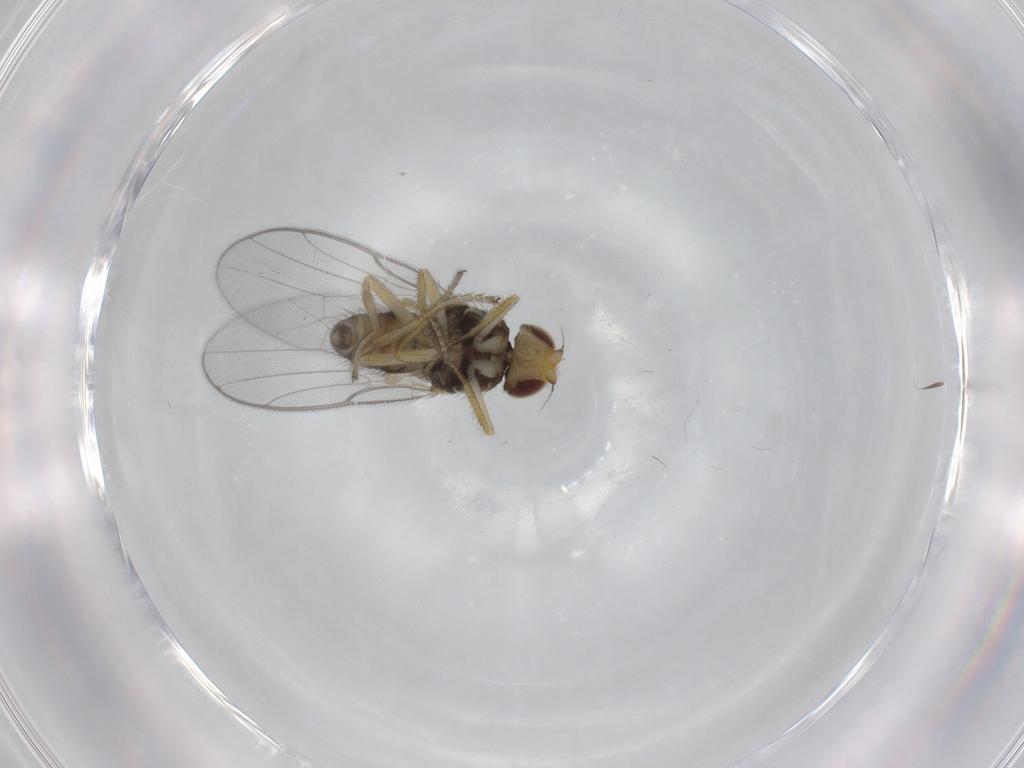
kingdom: Animalia
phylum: Arthropoda
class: Insecta
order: Diptera
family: Chloropidae
